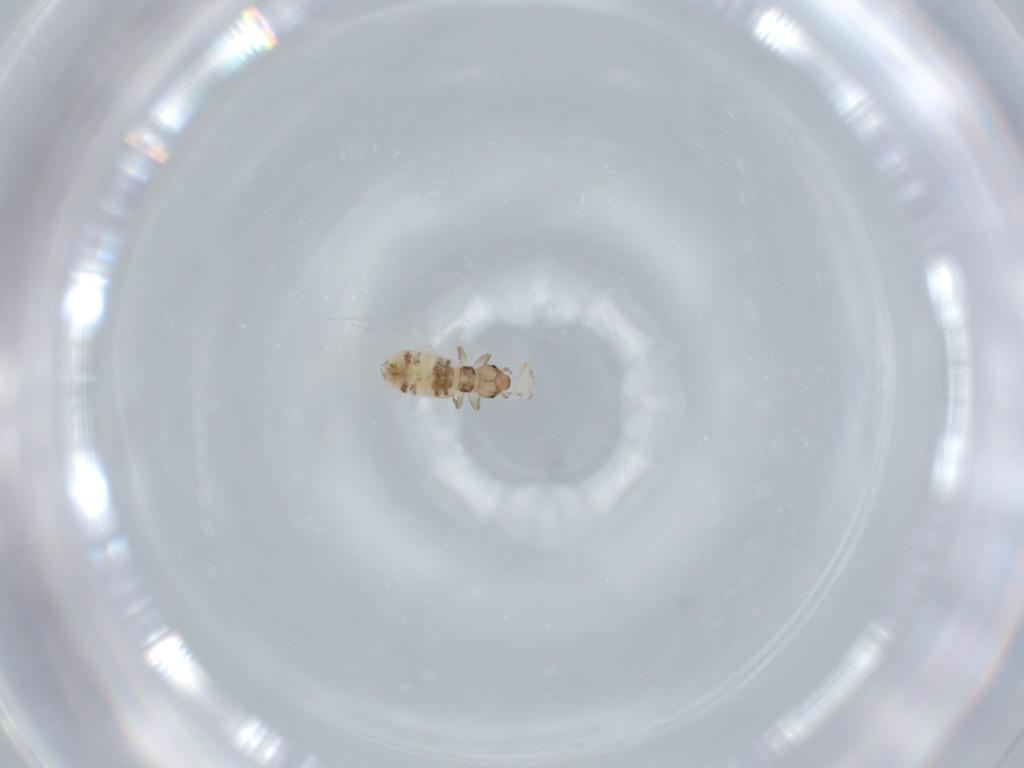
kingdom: Animalia
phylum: Arthropoda
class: Insecta
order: Psocodea
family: Liposcelididae
